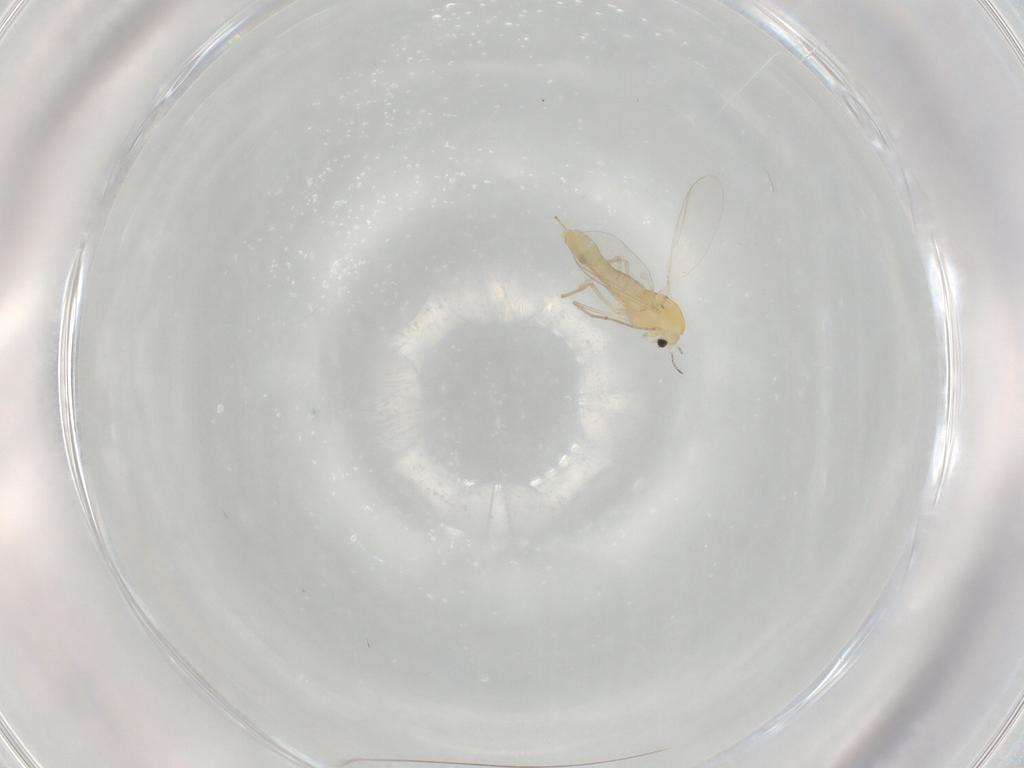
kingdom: Animalia
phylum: Arthropoda
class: Insecta
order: Diptera
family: Chironomidae
